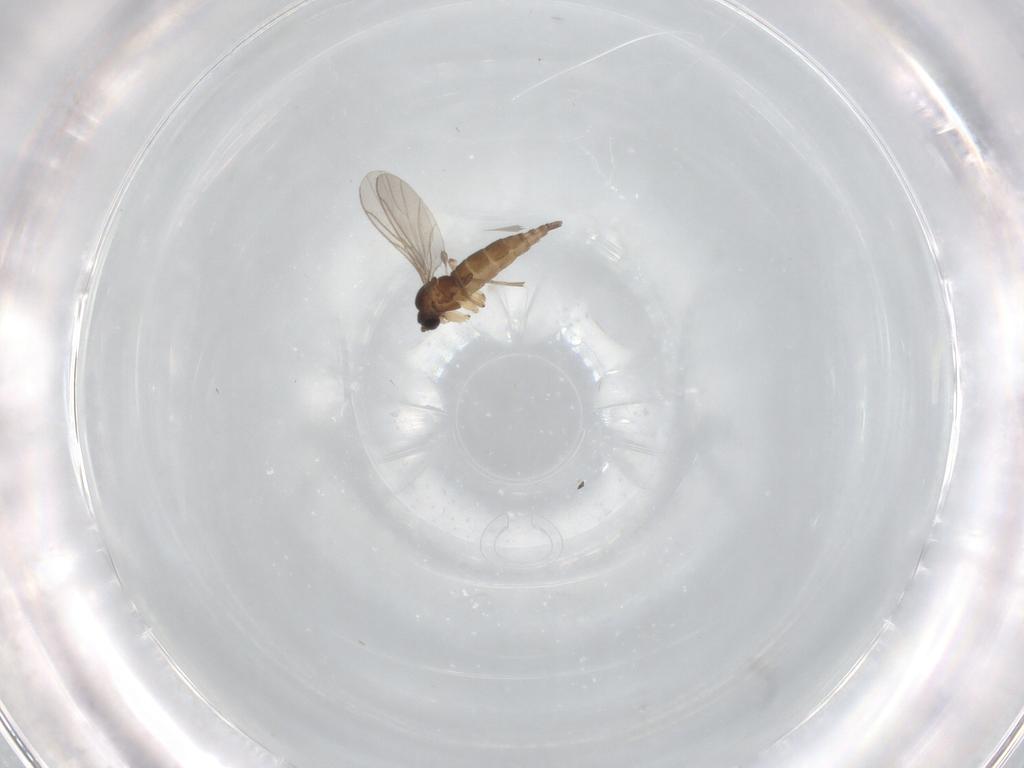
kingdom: Animalia
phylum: Arthropoda
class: Insecta
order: Diptera
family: Sciaridae
